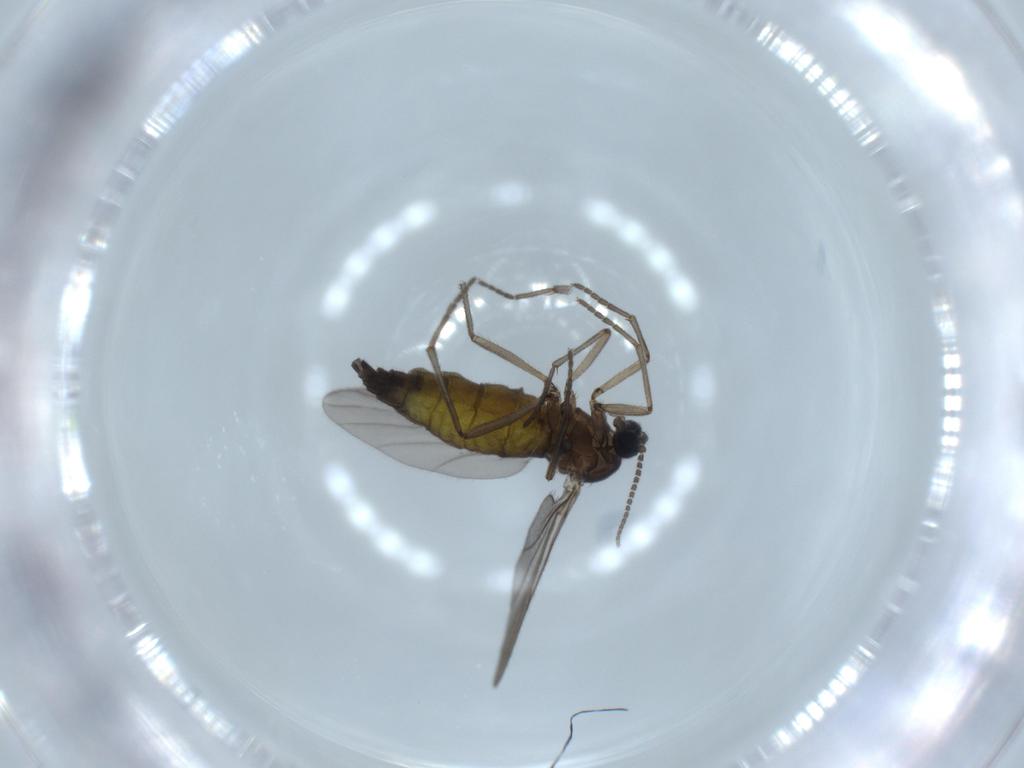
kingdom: Animalia
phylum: Arthropoda
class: Insecta
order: Diptera
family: Sciaridae
